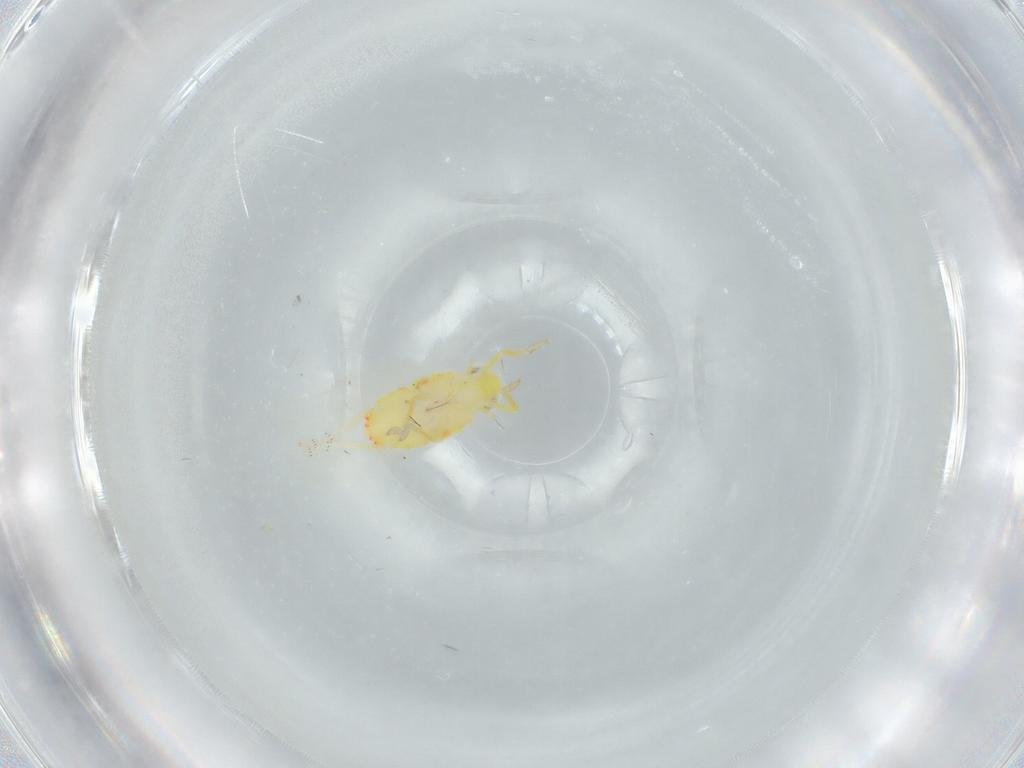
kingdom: Animalia
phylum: Arthropoda
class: Insecta
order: Hemiptera
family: Tropiduchidae
